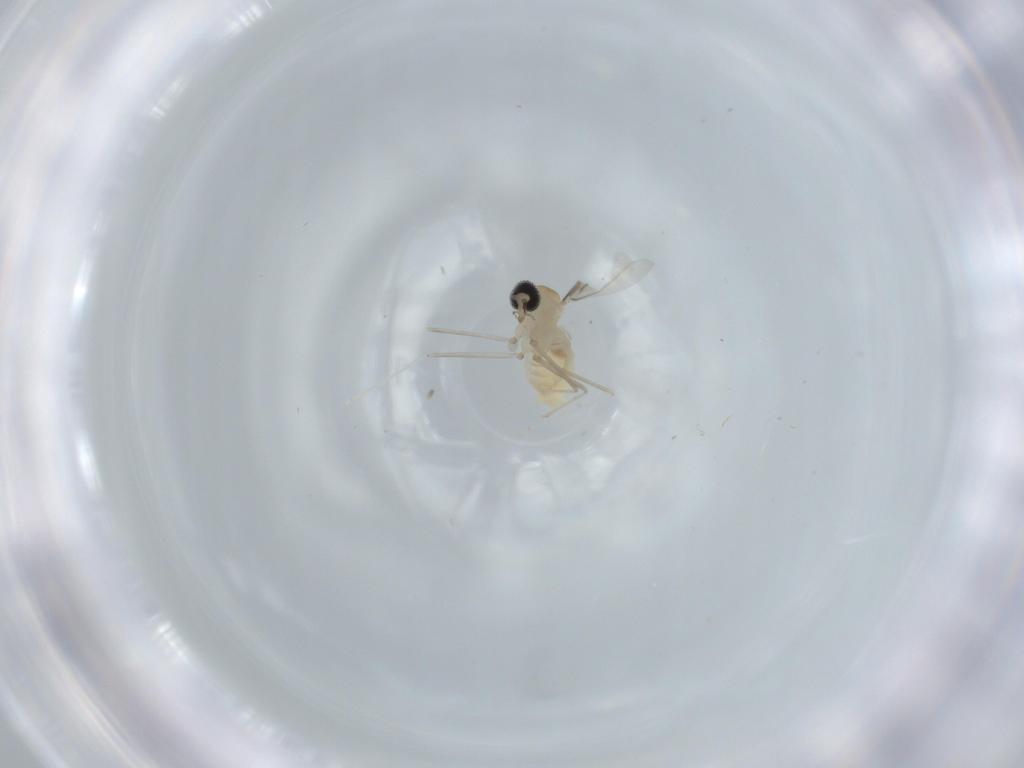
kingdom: Animalia
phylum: Arthropoda
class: Insecta
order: Diptera
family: Cecidomyiidae
